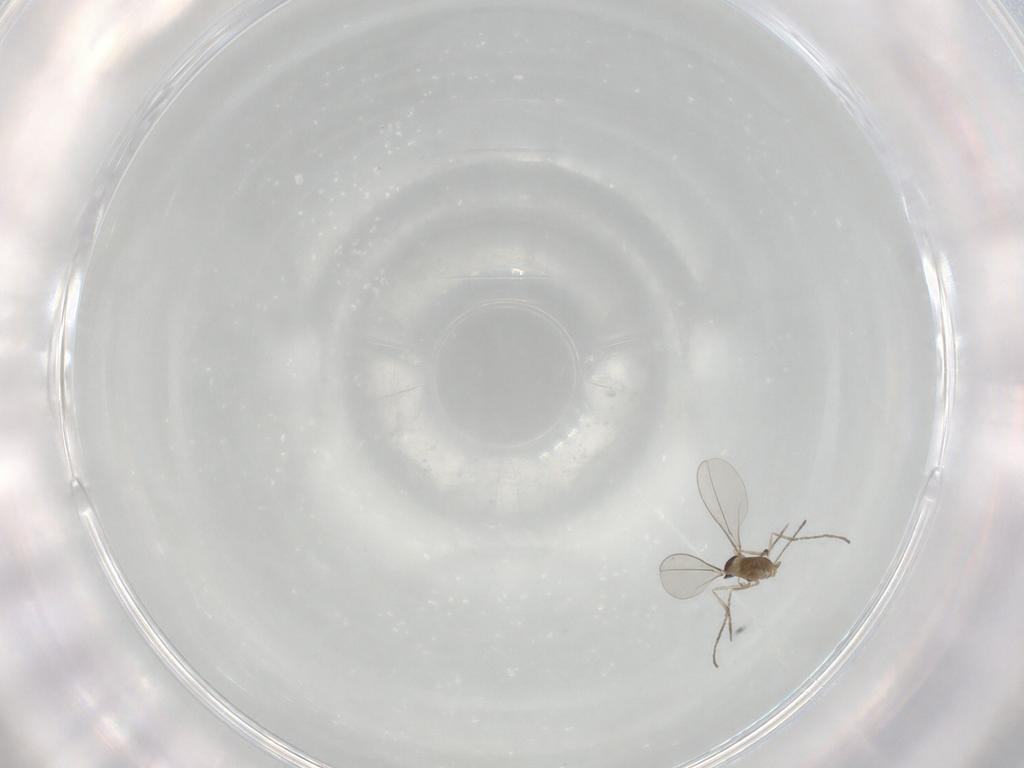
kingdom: Animalia
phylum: Arthropoda
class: Insecta
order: Diptera
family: Cecidomyiidae
